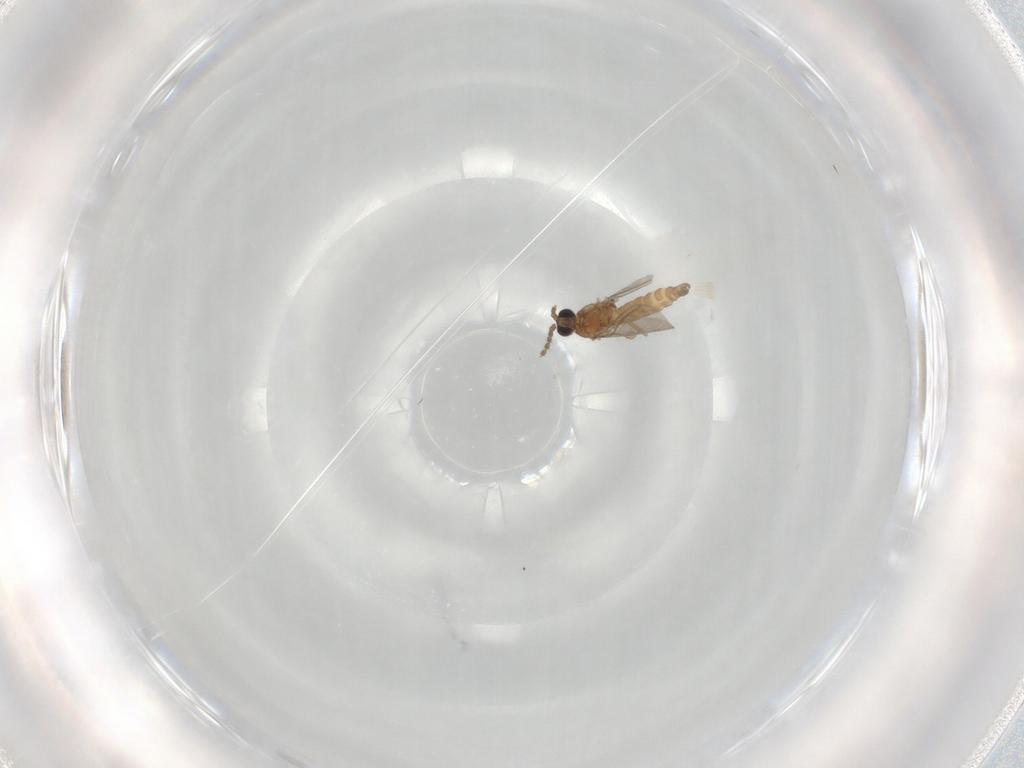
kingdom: Animalia
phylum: Arthropoda
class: Insecta
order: Diptera
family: Sciaridae
